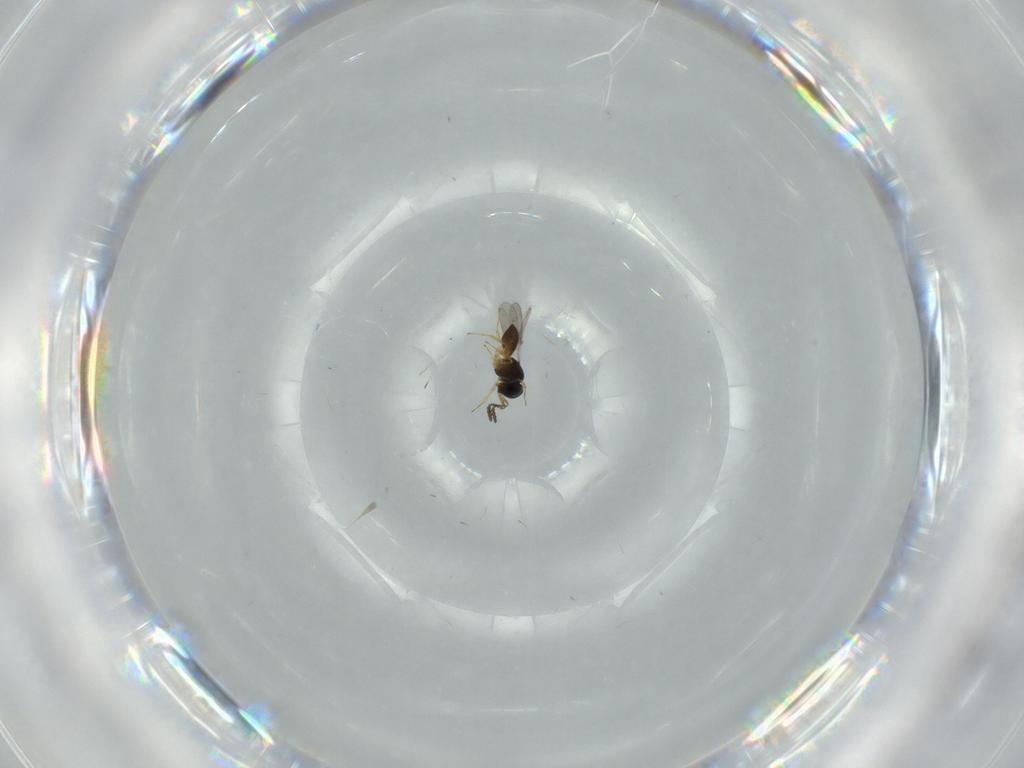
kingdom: Animalia
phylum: Arthropoda
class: Insecta
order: Hymenoptera
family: Scelionidae
